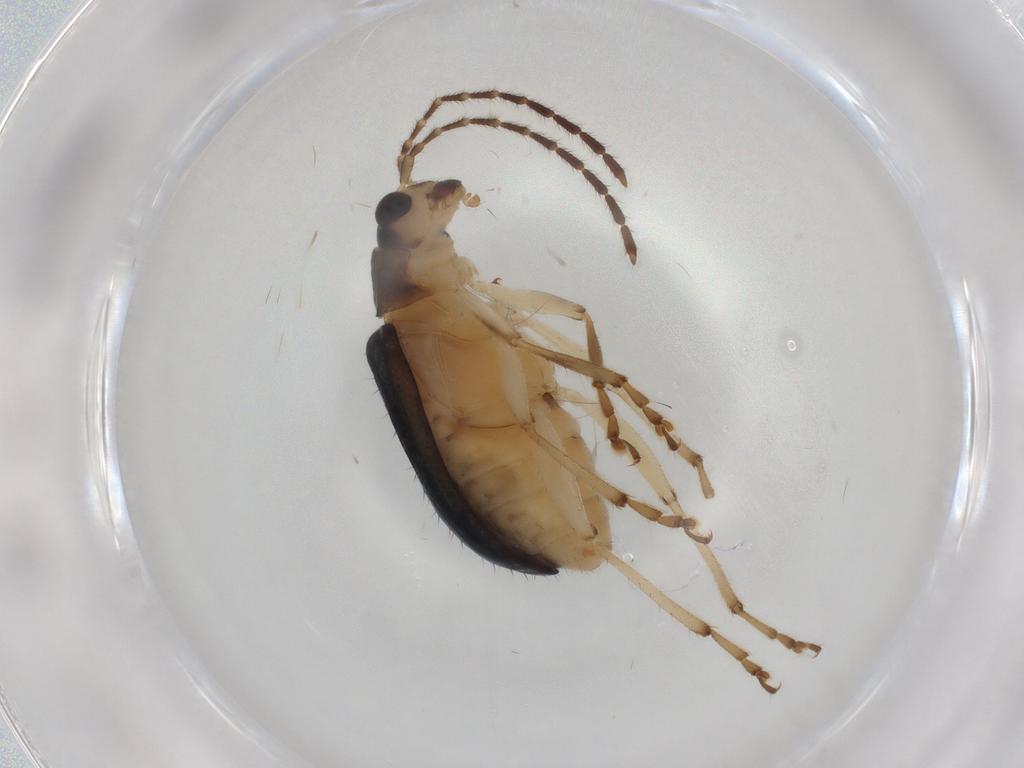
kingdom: Animalia
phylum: Arthropoda
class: Insecta
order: Coleoptera
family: Chrysomelidae
